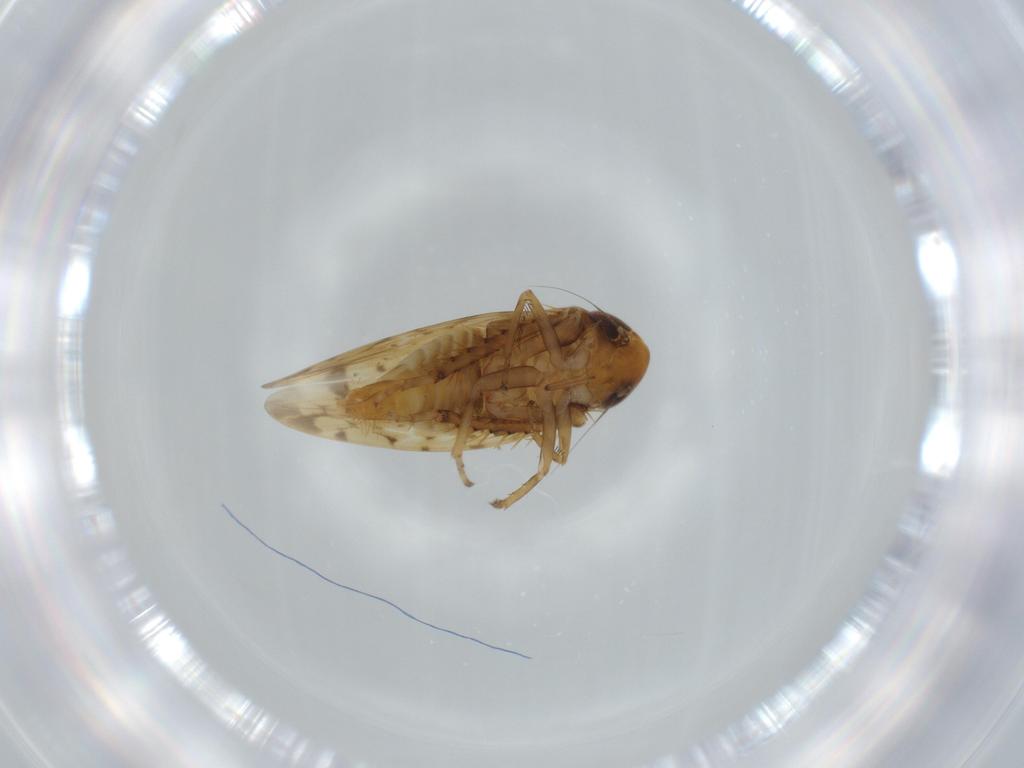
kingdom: Animalia
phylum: Arthropoda
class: Insecta
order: Hemiptera
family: Cicadellidae
